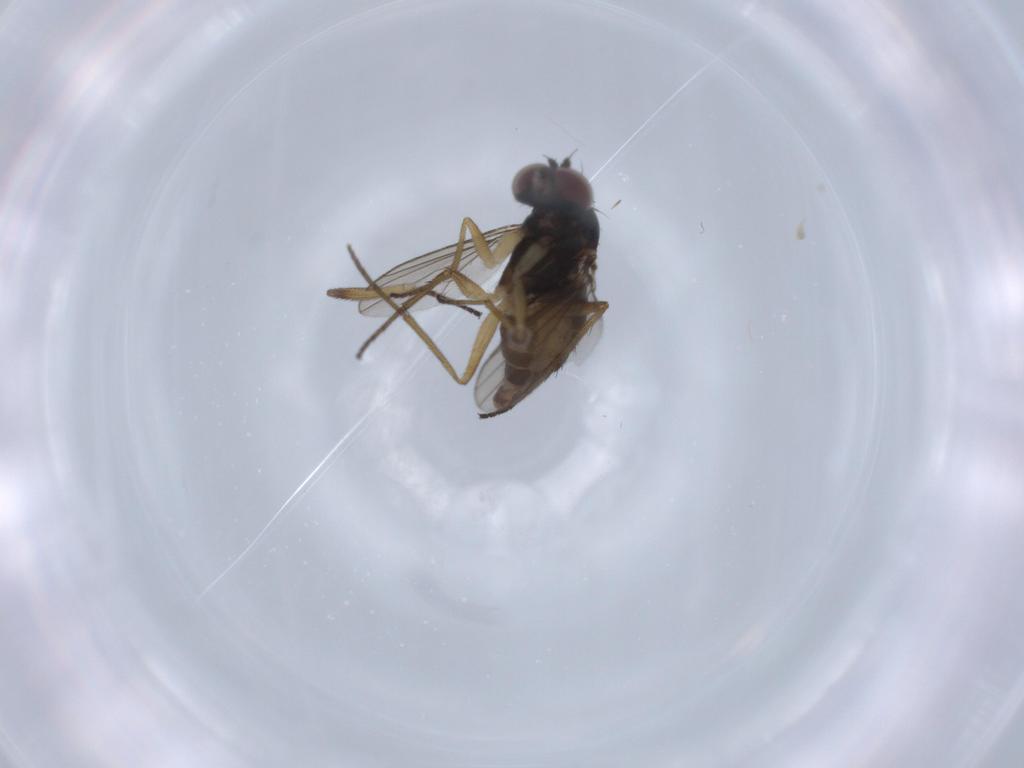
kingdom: Animalia
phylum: Arthropoda
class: Insecta
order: Diptera
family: Dolichopodidae
